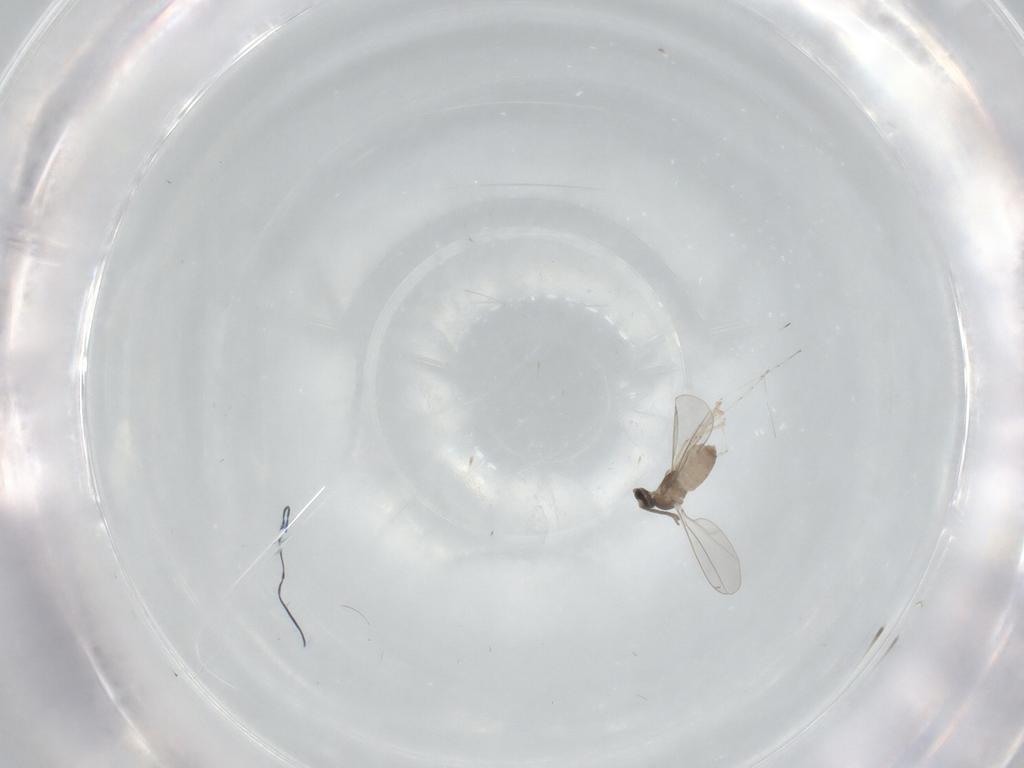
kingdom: Animalia
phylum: Arthropoda
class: Insecta
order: Diptera
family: Cecidomyiidae
